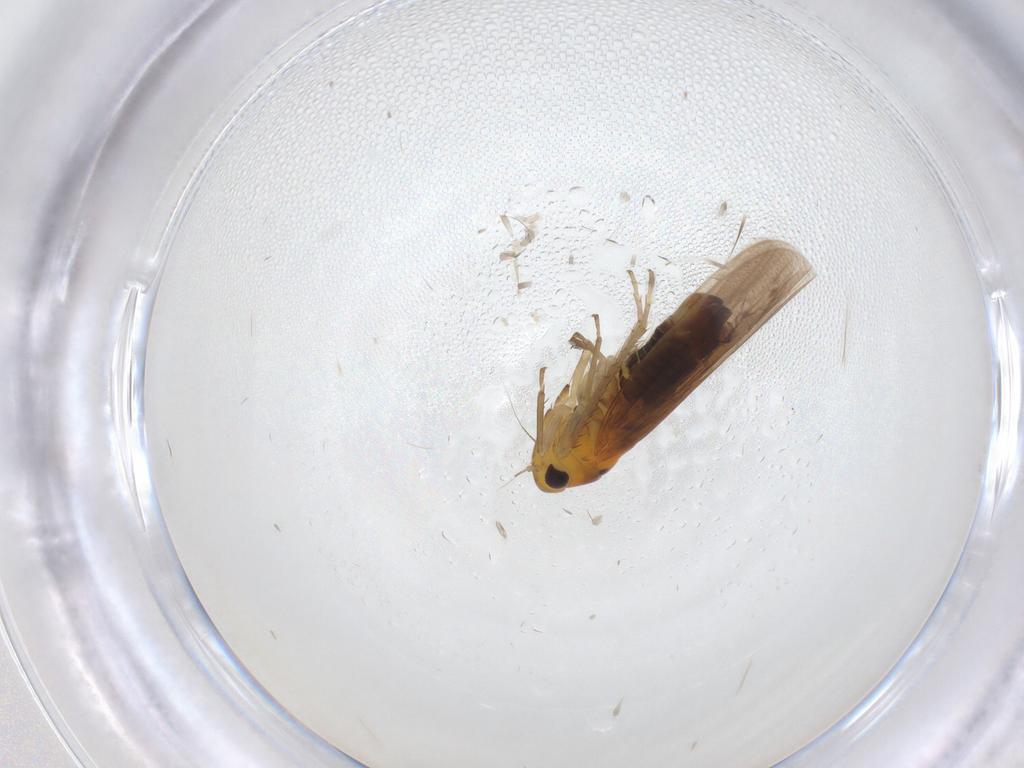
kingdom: Animalia
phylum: Arthropoda
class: Insecta
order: Hemiptera
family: Cicadellidae
